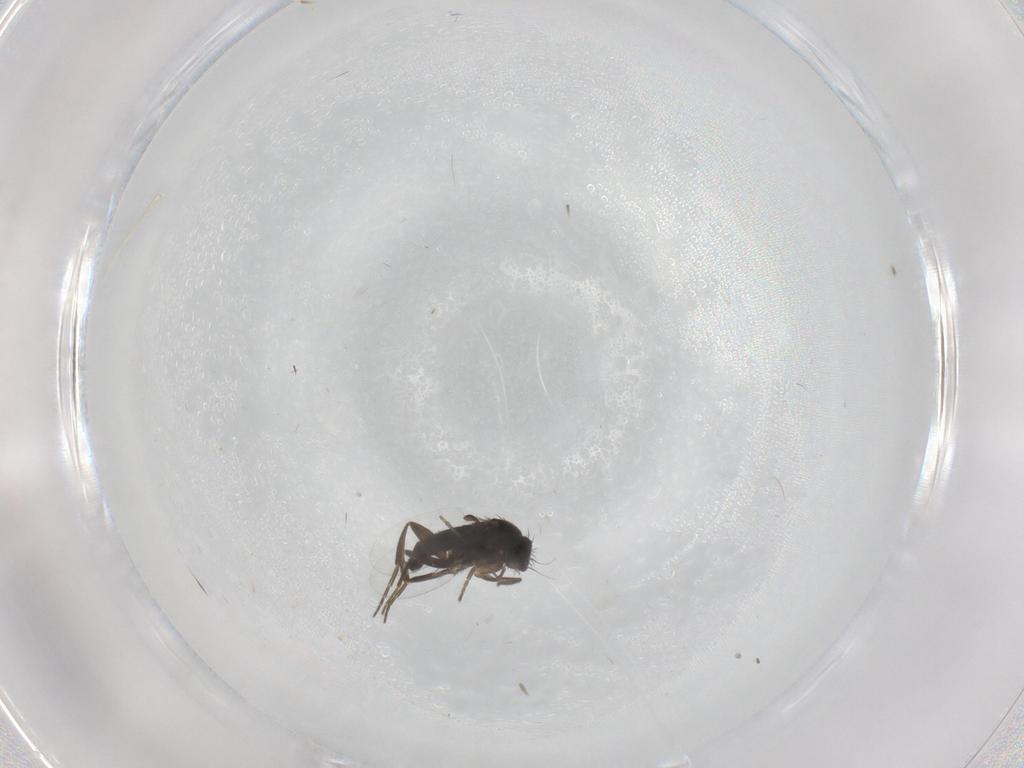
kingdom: Animalia
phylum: Arthropoda
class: Insecta
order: Diptera
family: Phoridae
